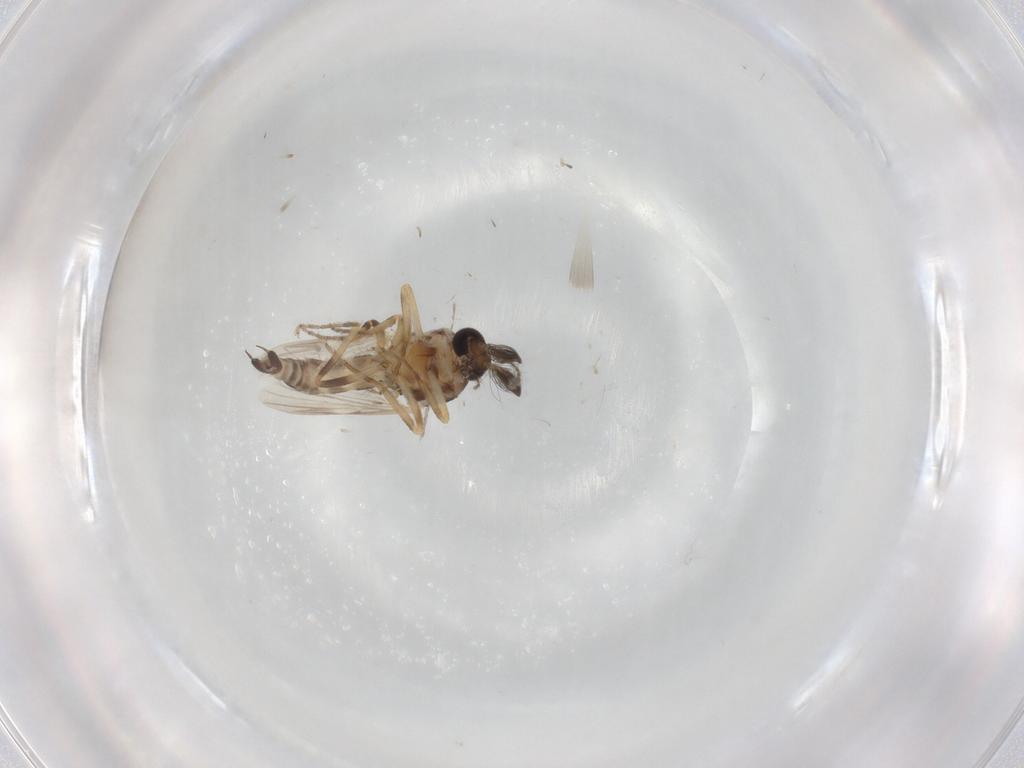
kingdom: Animalia
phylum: Arthropoda
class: Insecta
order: Diptera
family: Ceratopogonidae
